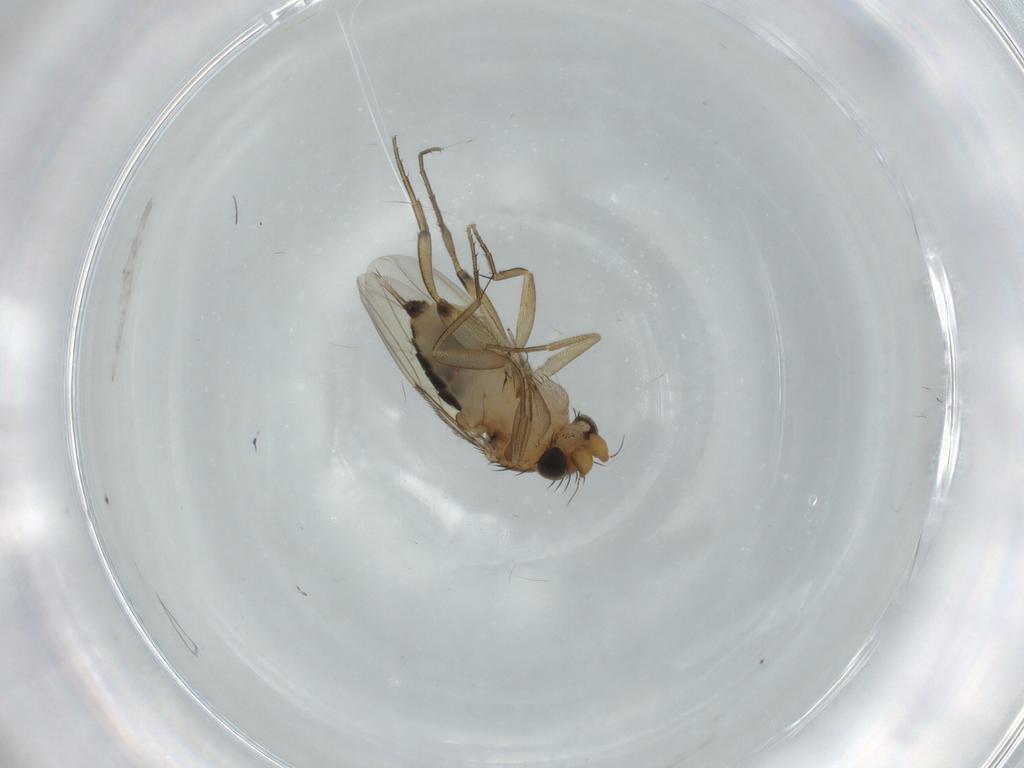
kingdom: Animalia
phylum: Arthropoda
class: Insecta
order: Diptera
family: Chironomidae
